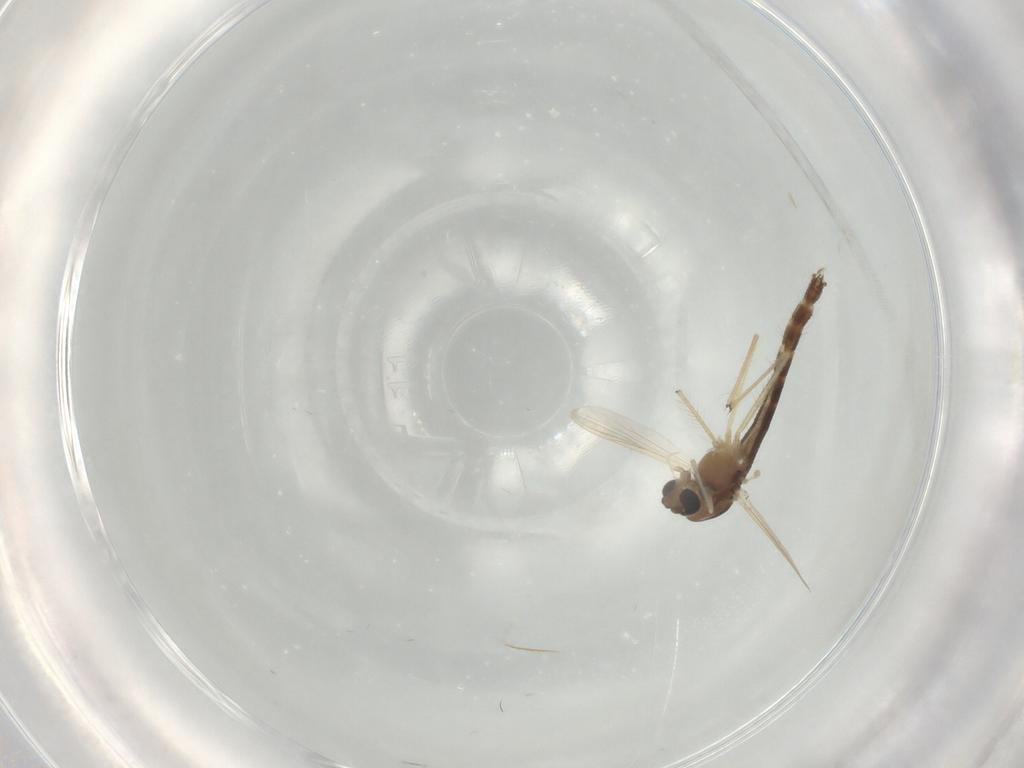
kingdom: Animalia
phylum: Arthropoda
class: Insecta
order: Diptera
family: Chironomidae
